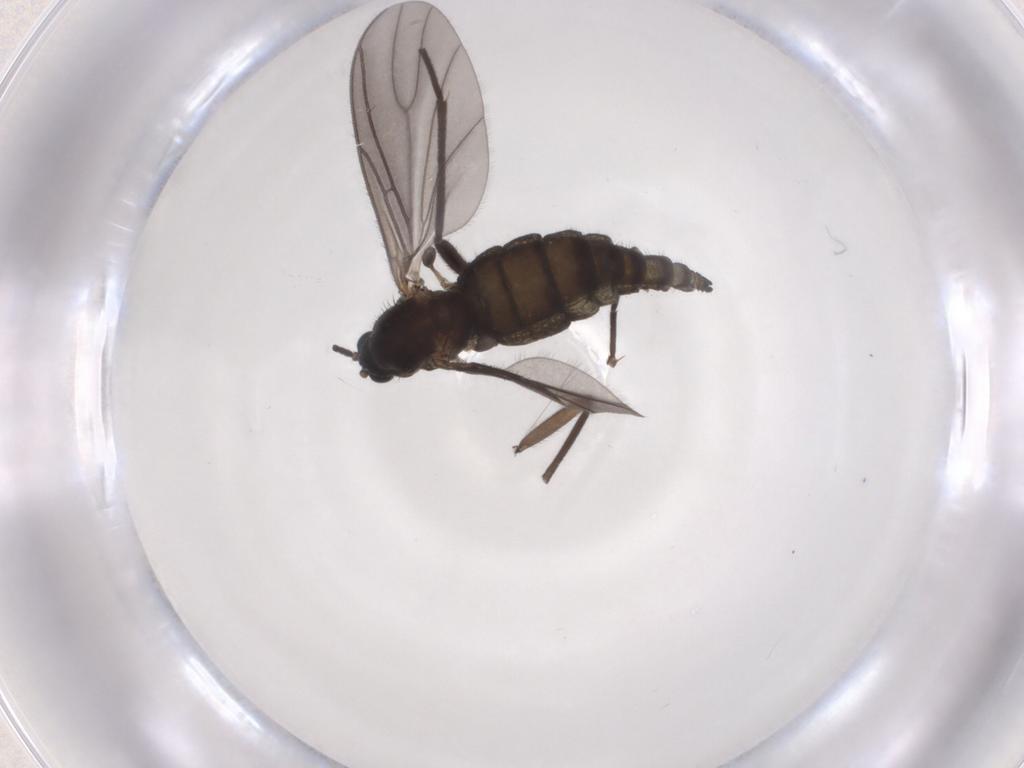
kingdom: Animalia
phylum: Arthropoda
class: Insecta
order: Diptera
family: Sciaridae
